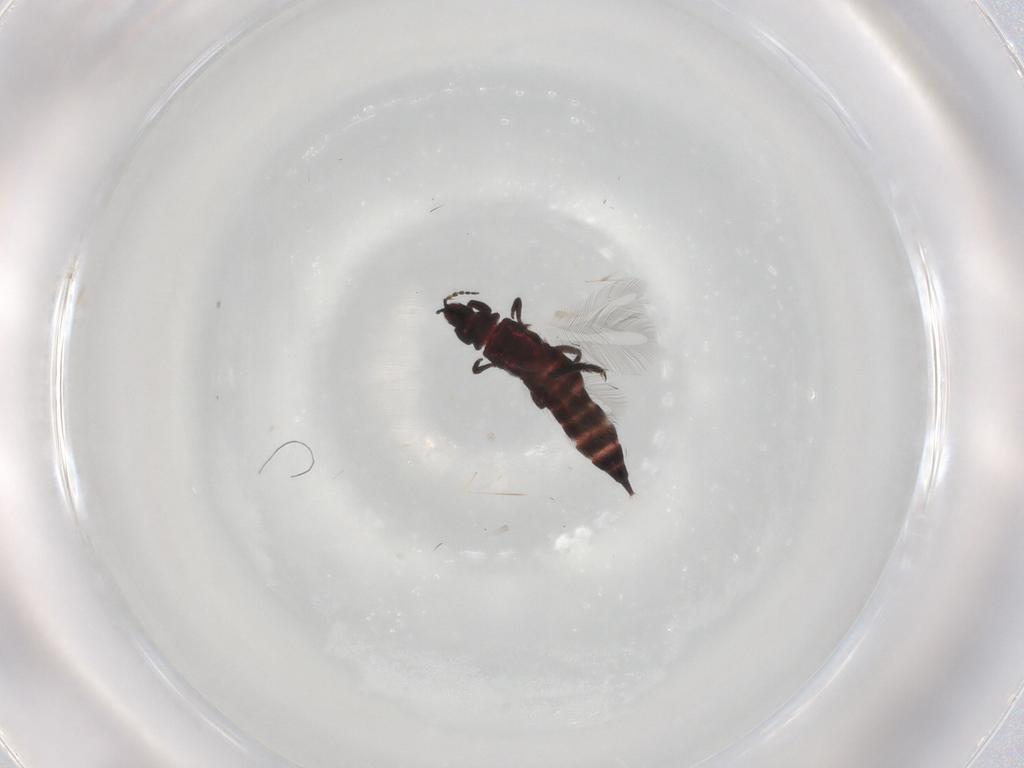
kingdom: Animalia
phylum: Arthropoda
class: Insecta
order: Thysanoptera
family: Phlaeothripidae
